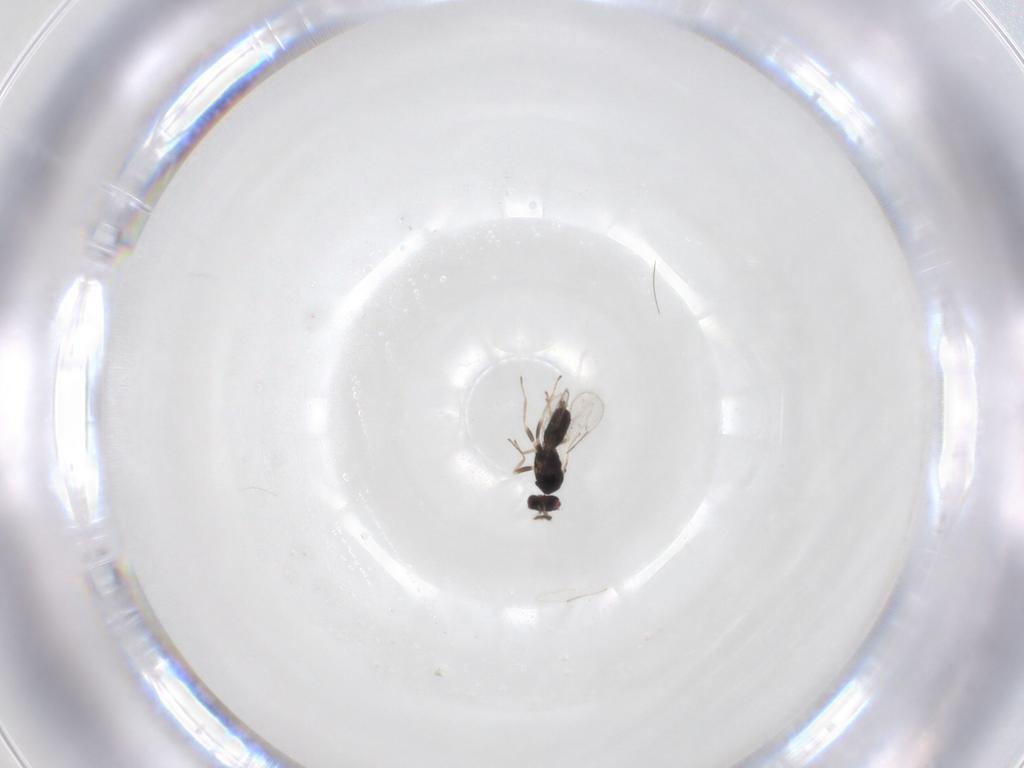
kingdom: Animalia
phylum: Arthropoda
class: Insecta
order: Hymenoptera
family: Eulophidae
